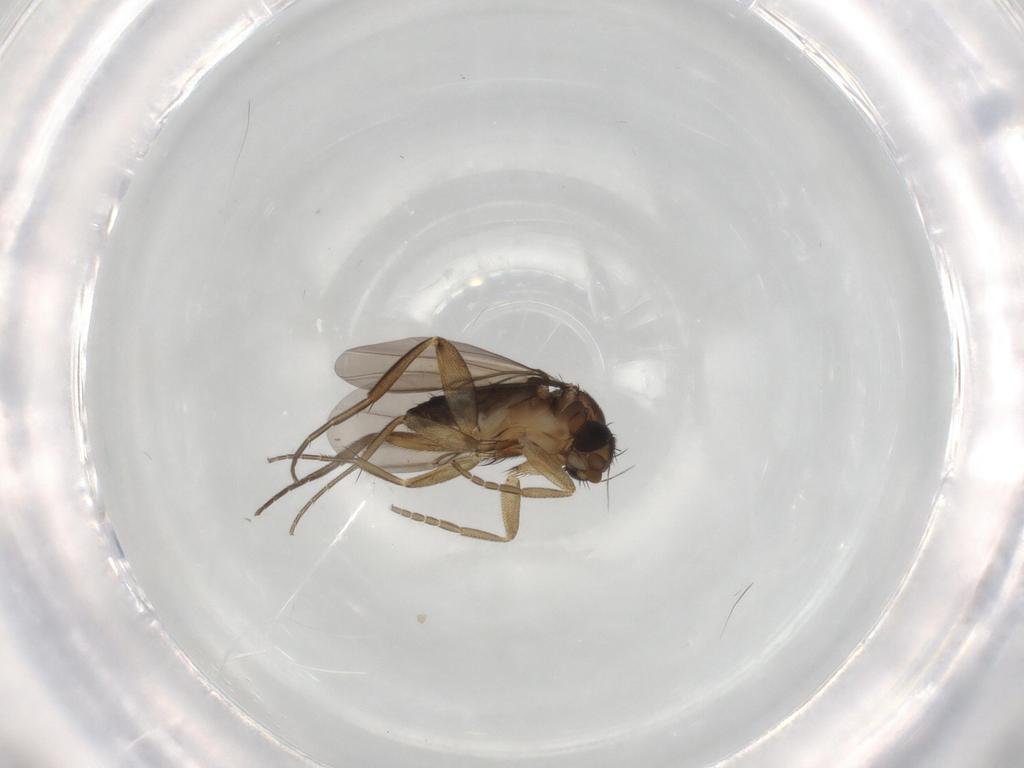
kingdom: Animalia
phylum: Arthropoda
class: Insecta
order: Diptera
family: Phoridae
